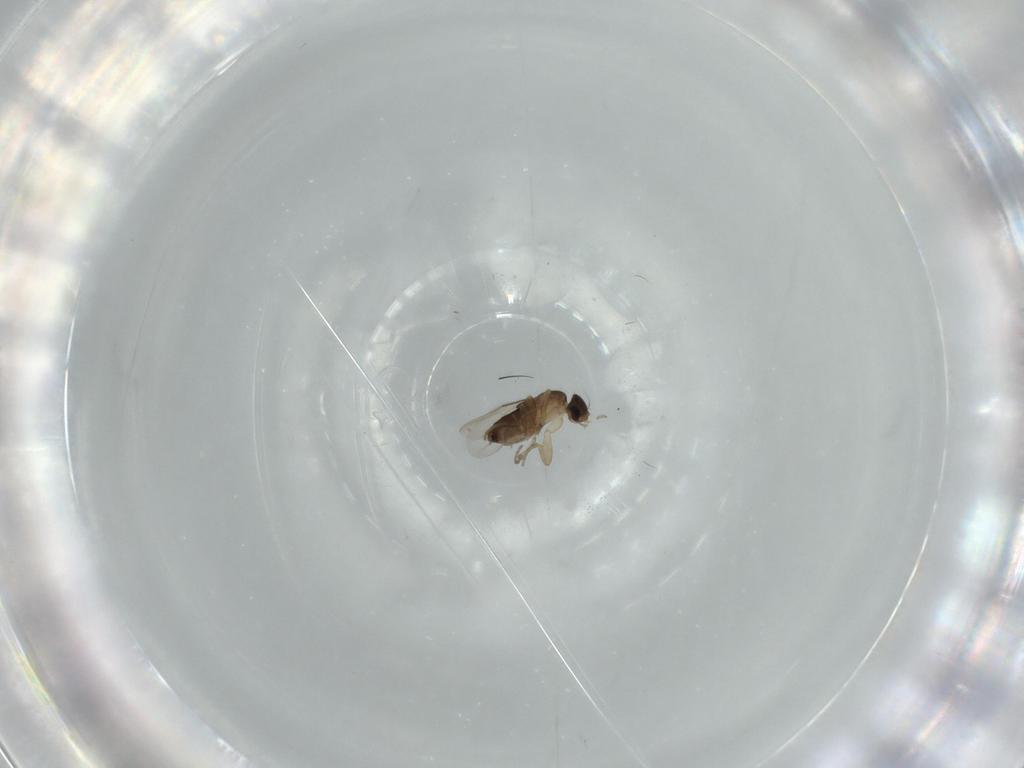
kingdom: Animalia
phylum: Arthropoda
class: Insecta
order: Diptera
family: Phoridae
